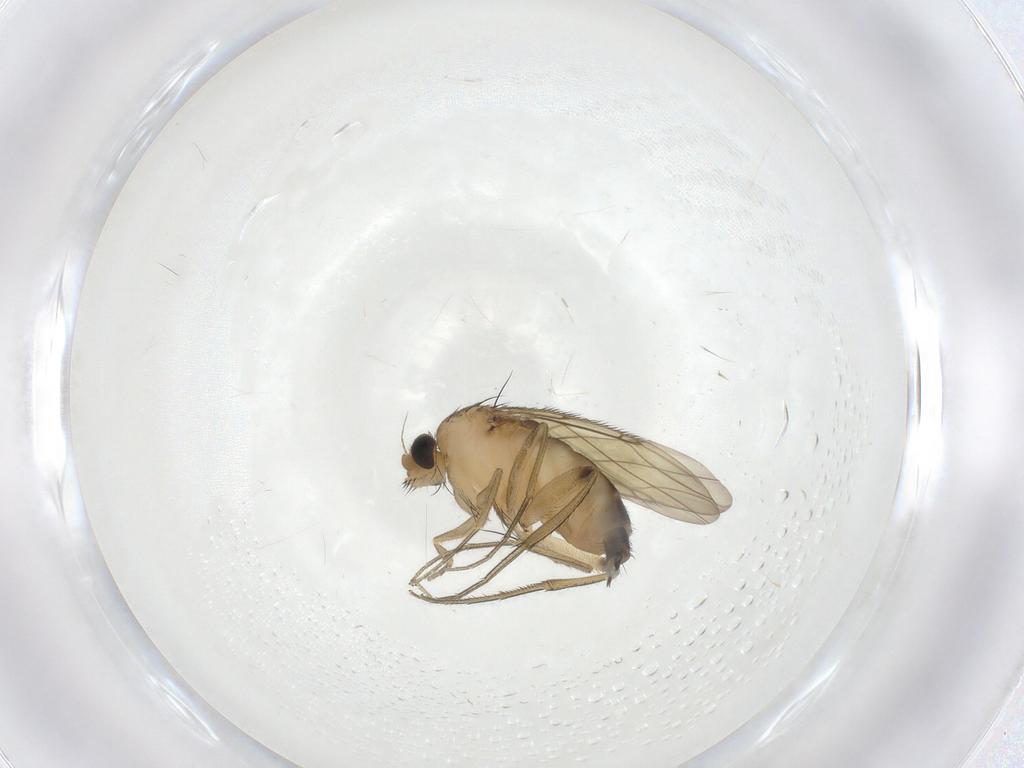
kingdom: Animalia
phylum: Arthropoda
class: Insecta
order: Diptera
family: Phoridae
